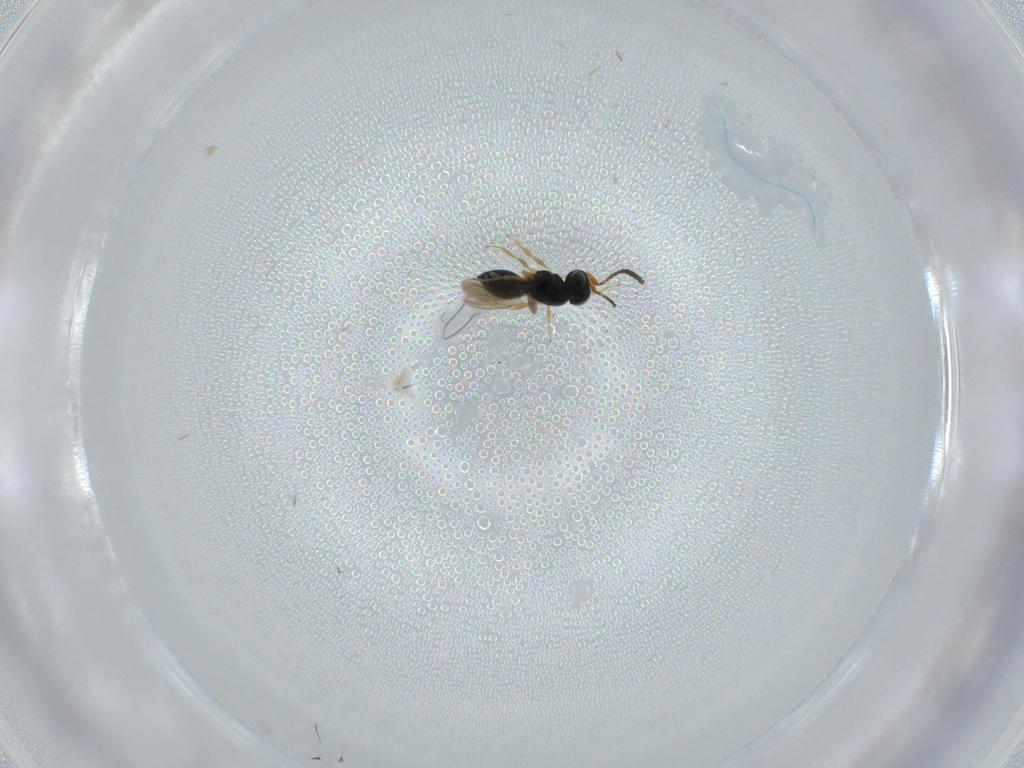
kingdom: Animalia
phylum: Arthropoda
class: Insecta
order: Hymenoptera
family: Scelionidae
